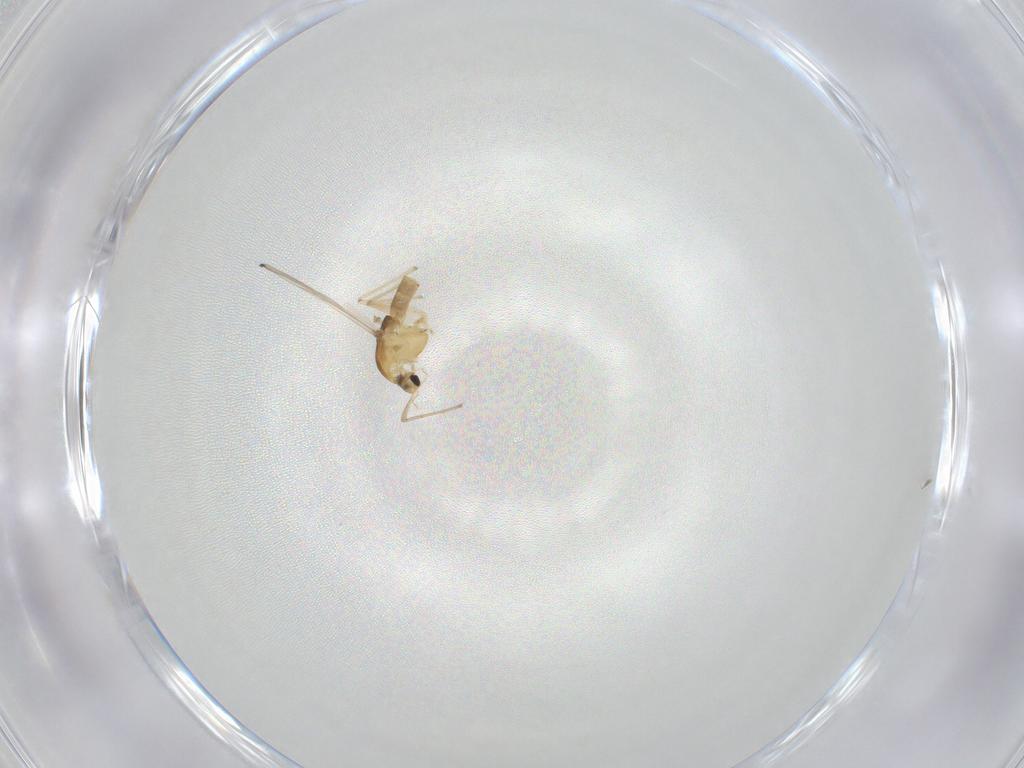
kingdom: Animalia
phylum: Arthropoda
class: Insecta
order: Diptera
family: Chironomidae
